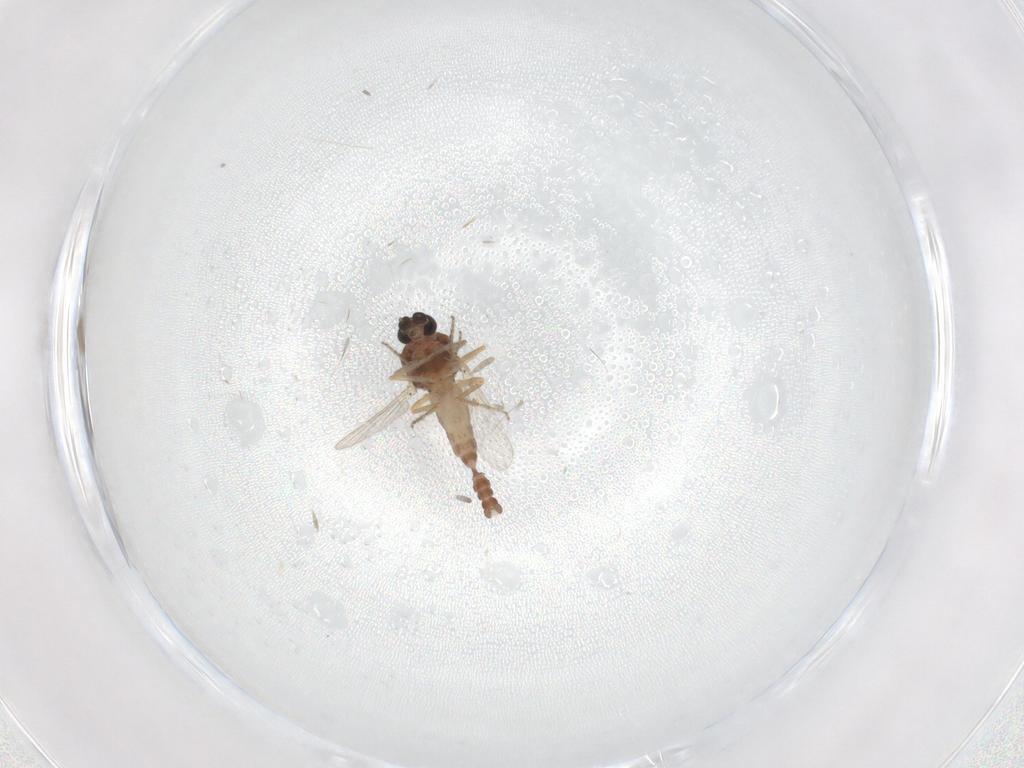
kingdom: Animalia
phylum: Arthropoda
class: Insecta
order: Diptera
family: Ceratopogonidae
